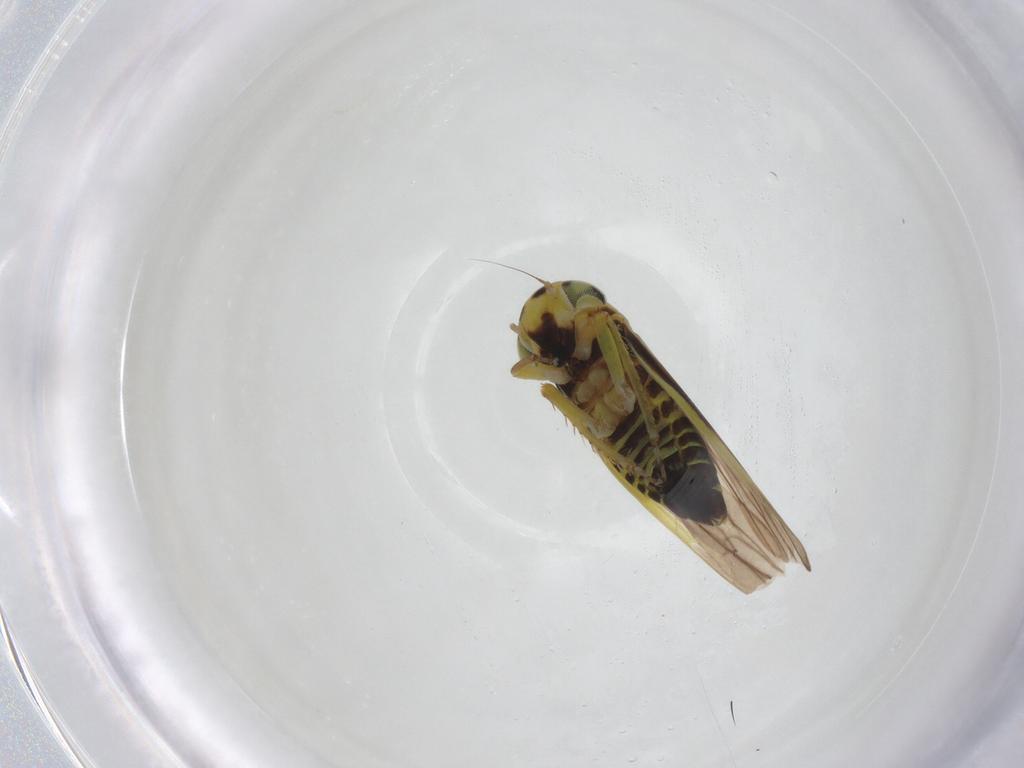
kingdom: Animalia
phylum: Arthropoda
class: Insecta
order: Hemiptera
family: Cicadellidae
